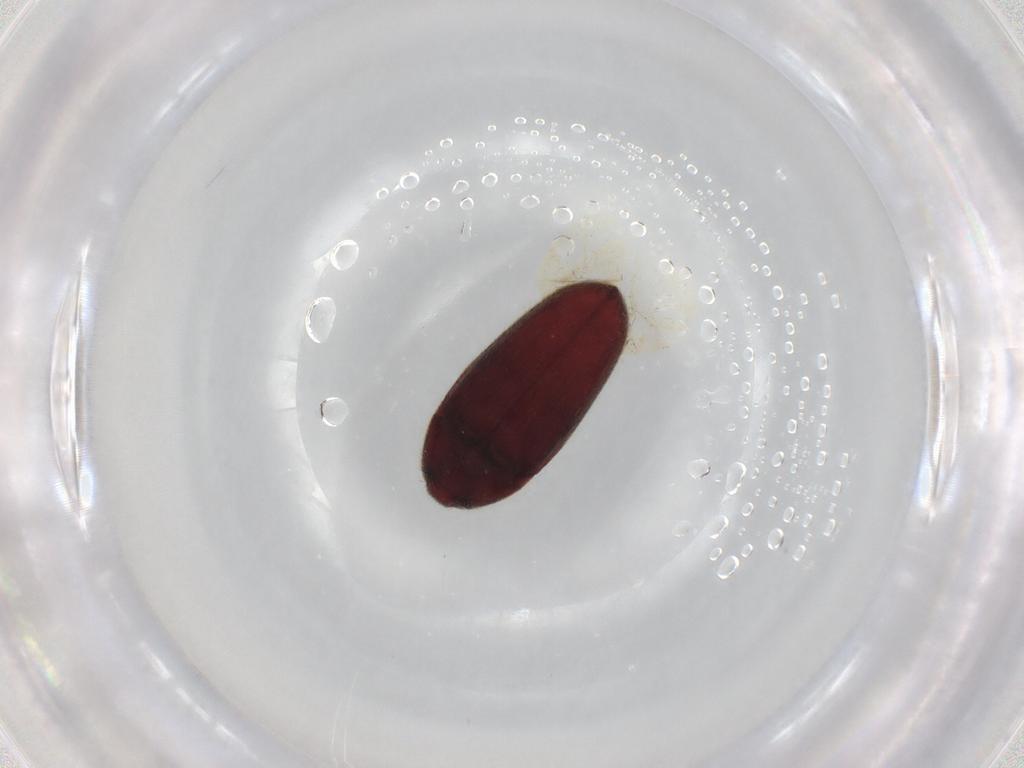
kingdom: Animalia
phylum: Arthropoda
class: Insecta
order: Coleoptera
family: Throscidae
